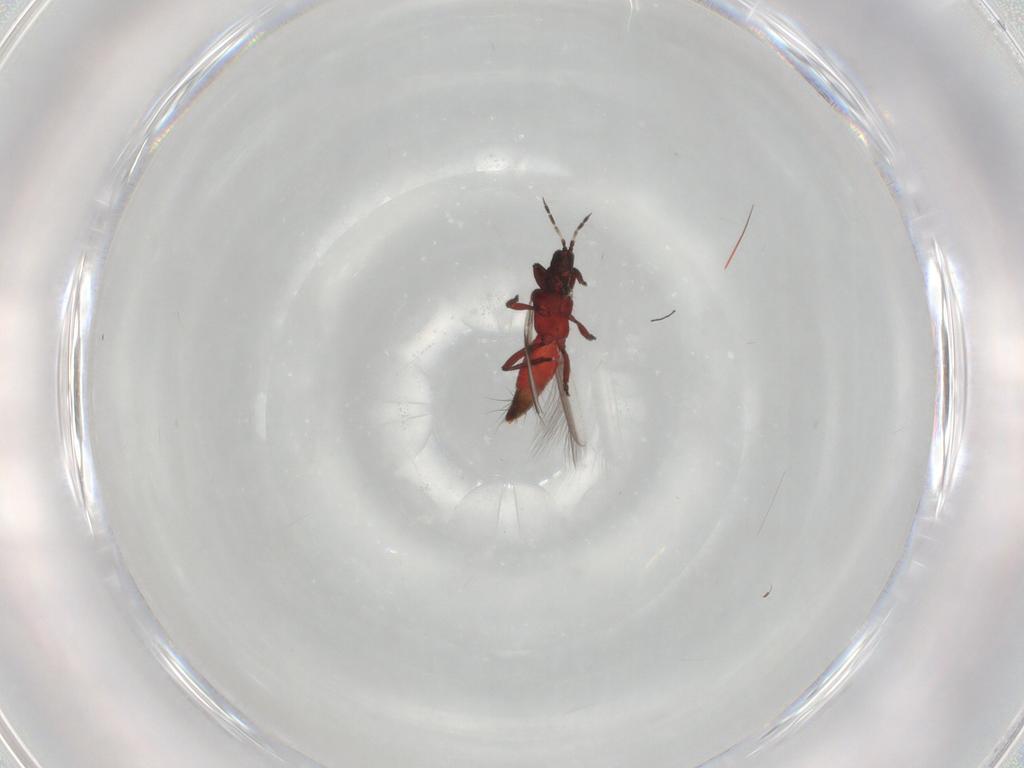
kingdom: Animalia
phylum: Arthropoda
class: Insecta
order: Thysanoptera
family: Aeolothripidae
